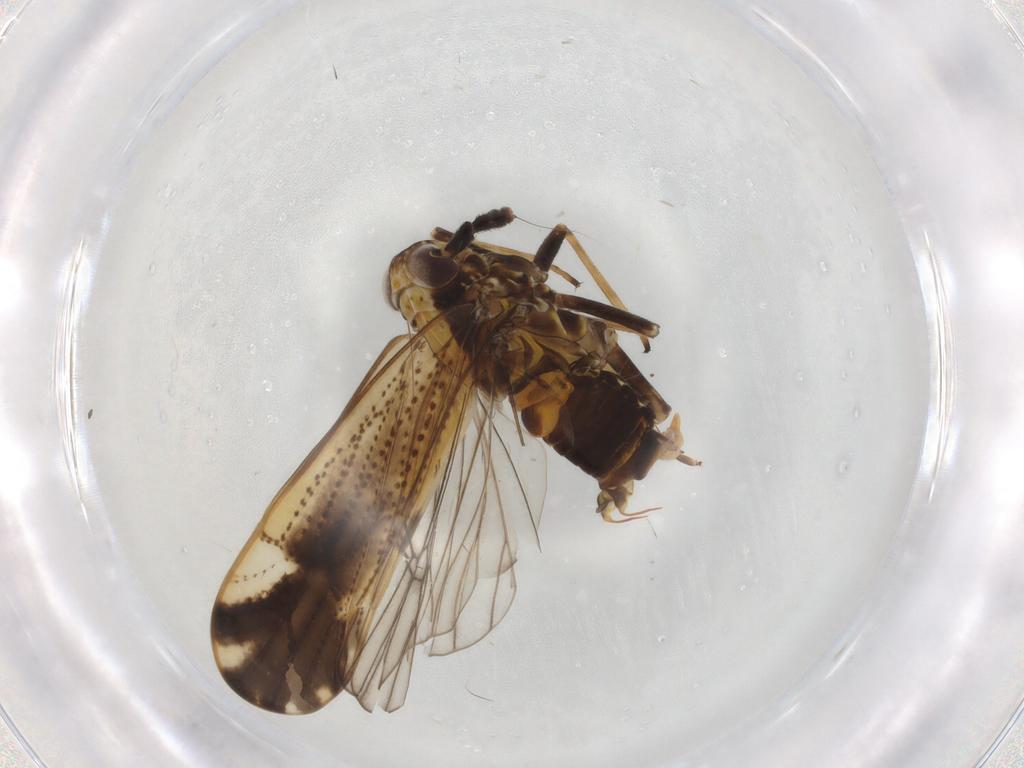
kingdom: Animalia
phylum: Arthropoda
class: Insecta
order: Hemiptera
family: Delphacidae
